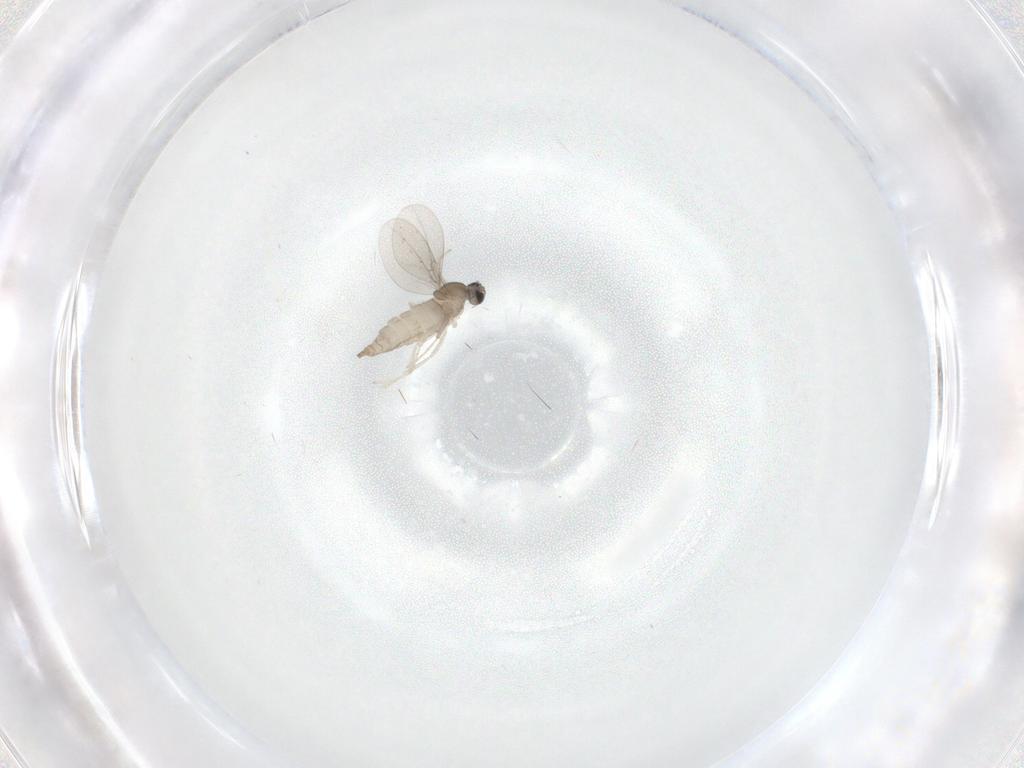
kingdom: Animalia
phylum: Arthropoda
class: Insecta
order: Diptera
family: Cecidomyiidae
